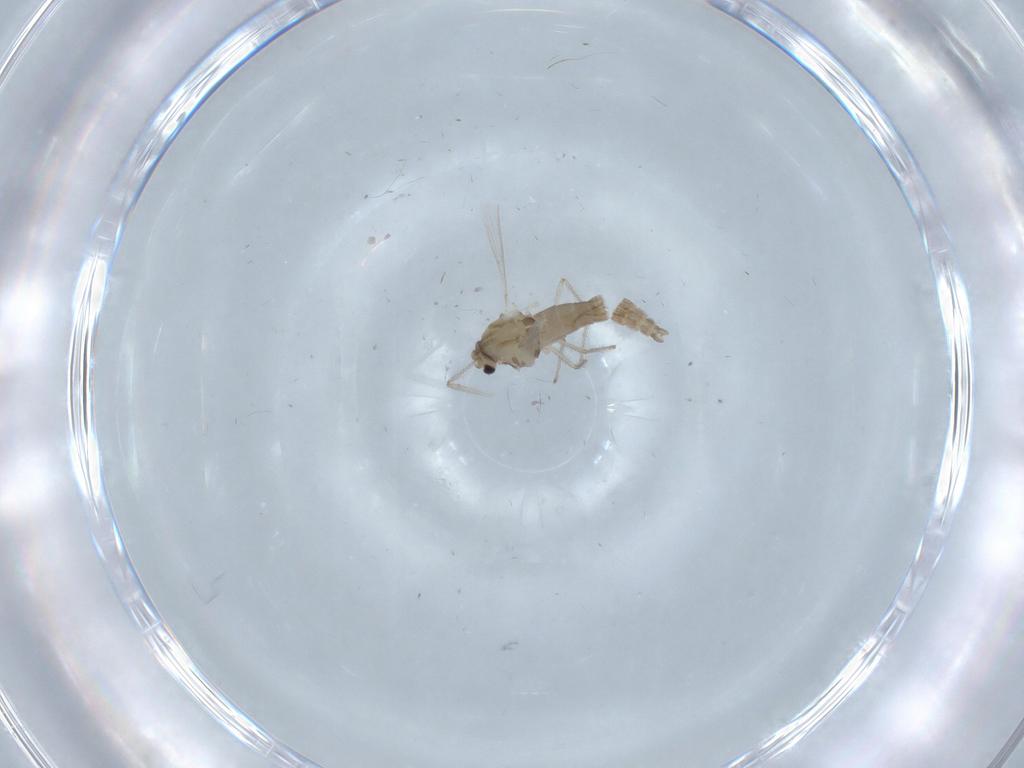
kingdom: Animalia
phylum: Arthropoda
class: Insecta
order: Diptera
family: Chironomidae
